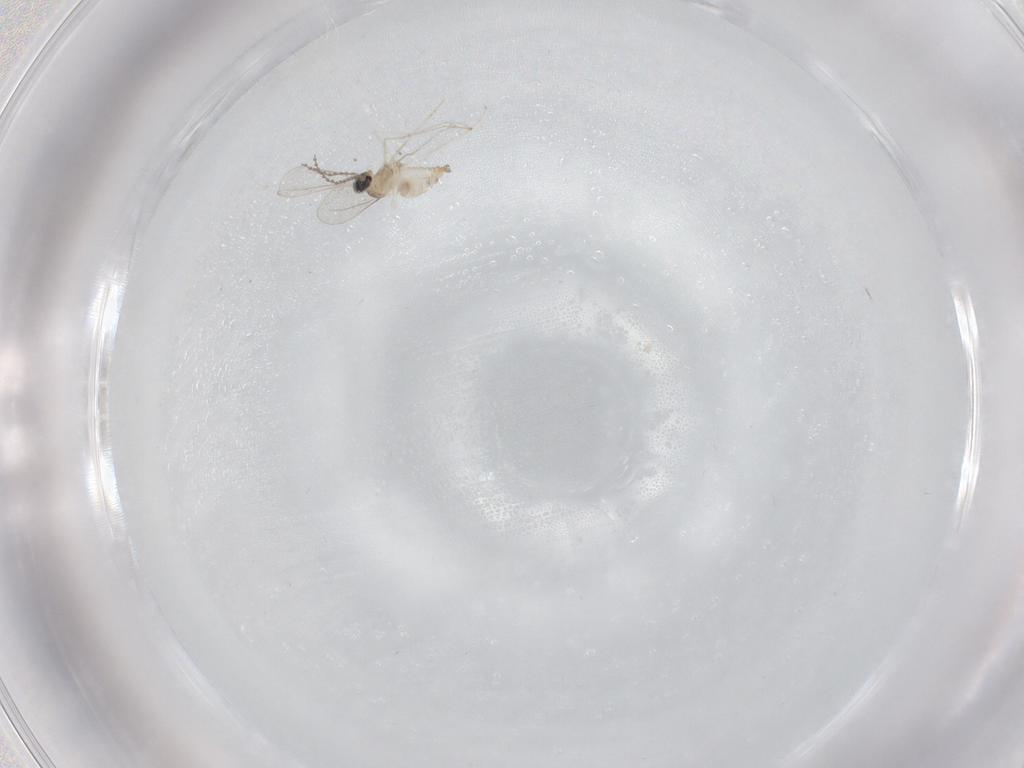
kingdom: Animalia
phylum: Arthropoda
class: Insecta
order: Diptera
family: Cecidomyiidae
